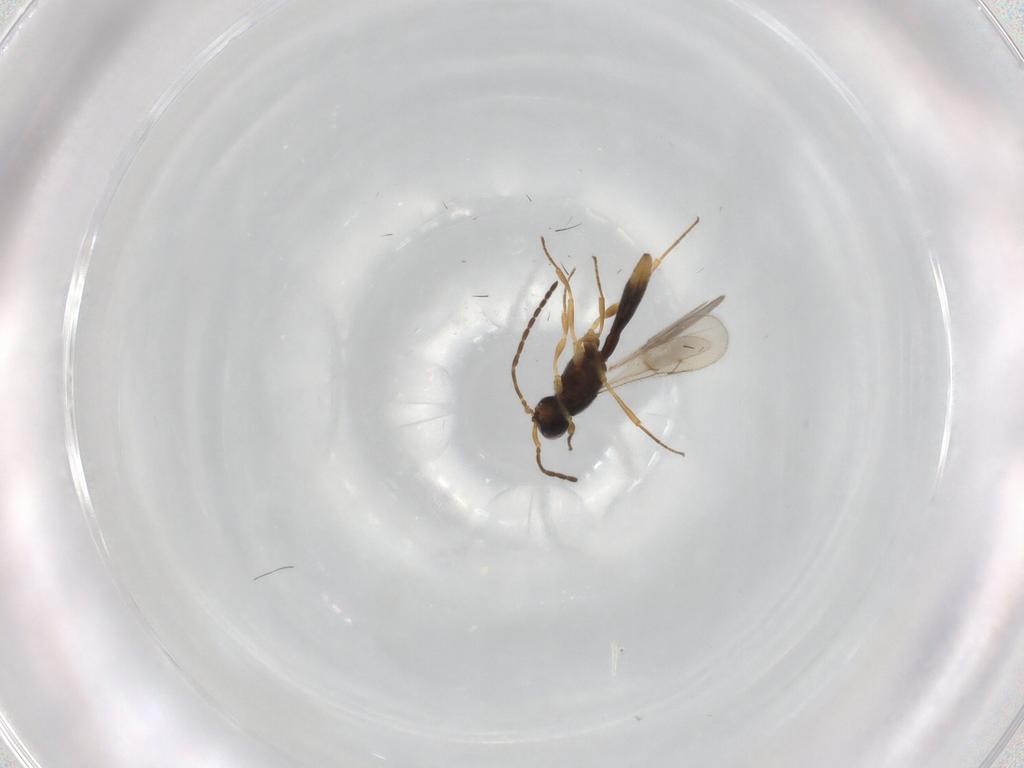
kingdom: Animalia
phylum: Arthropoda
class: Insecta
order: Hymenoptera
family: Scelionidae
